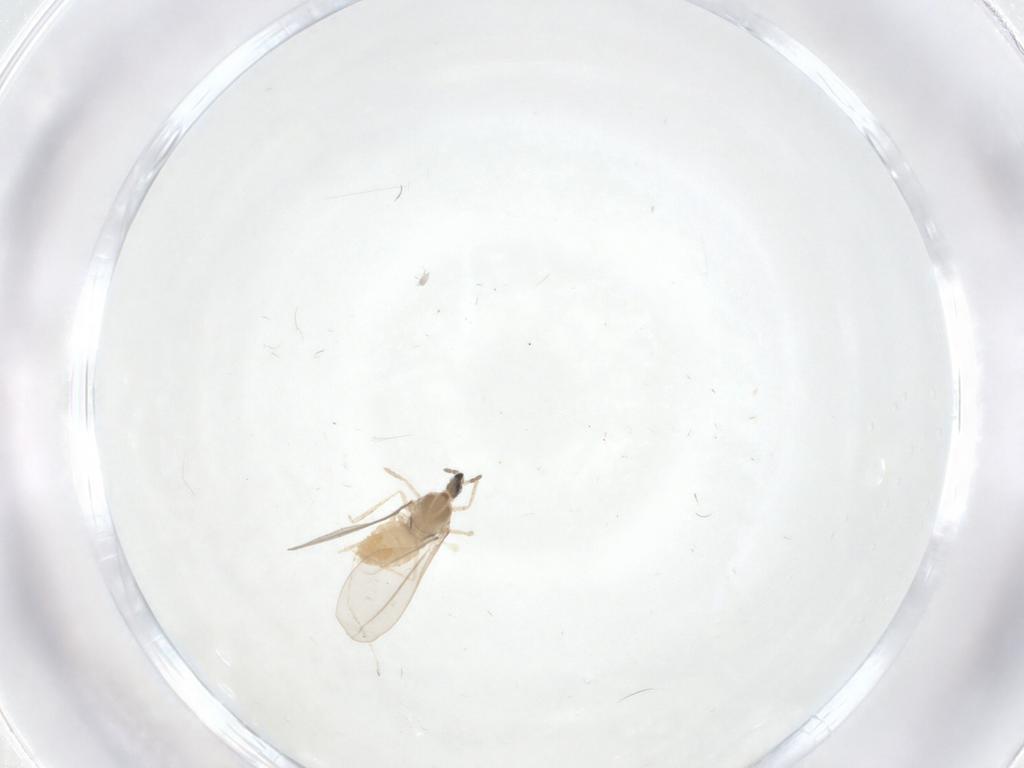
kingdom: Animalia
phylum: Arthropoda
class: Insecta
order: Diptera
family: Cecidomyiidae
